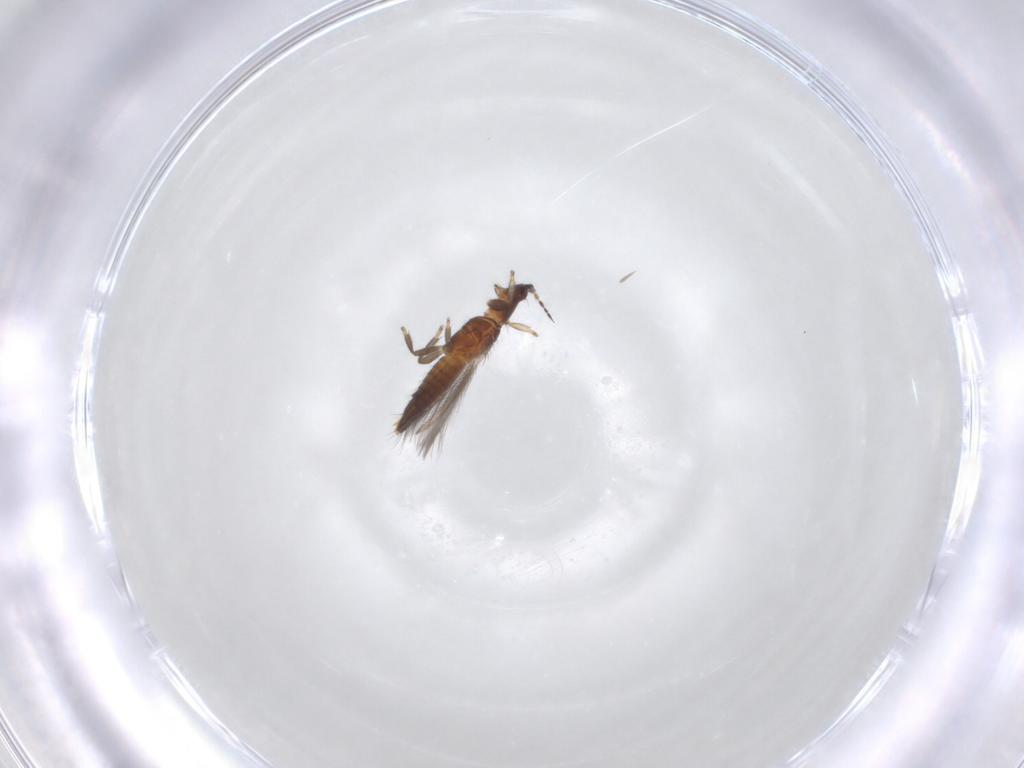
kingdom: Animalia
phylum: Arthropoda
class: Insecta
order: Thysanoptera
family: Thripidae
